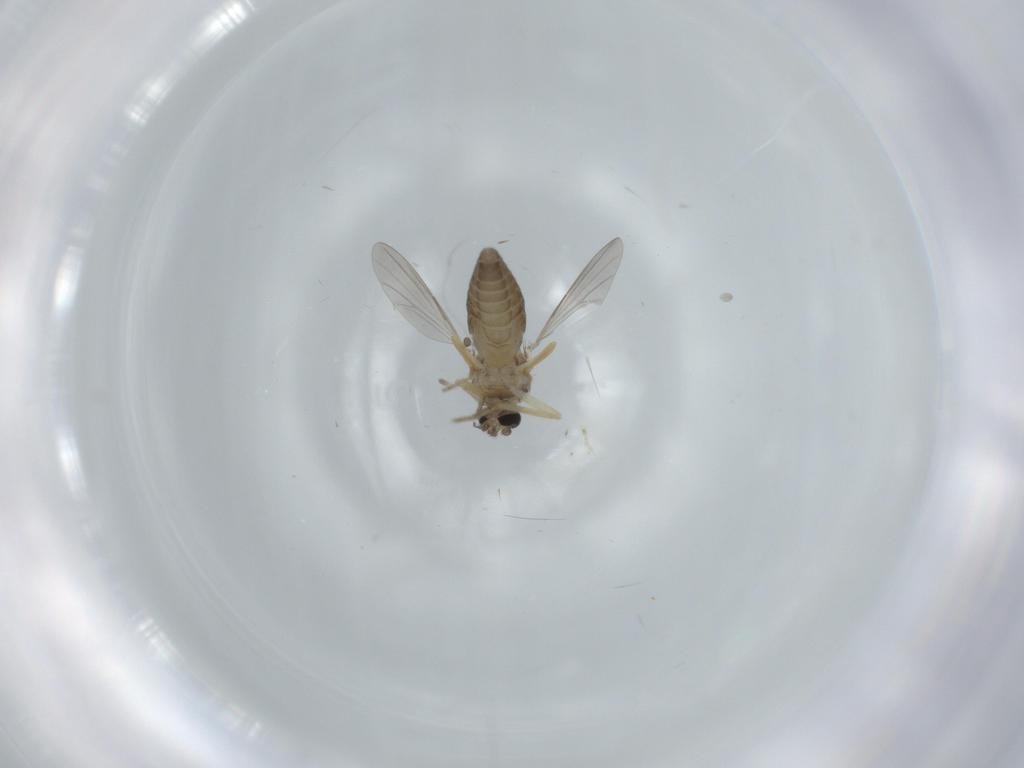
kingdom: Animalia
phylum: Arthropoda
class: Insecta
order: Diptera
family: Ceratopogonidae
